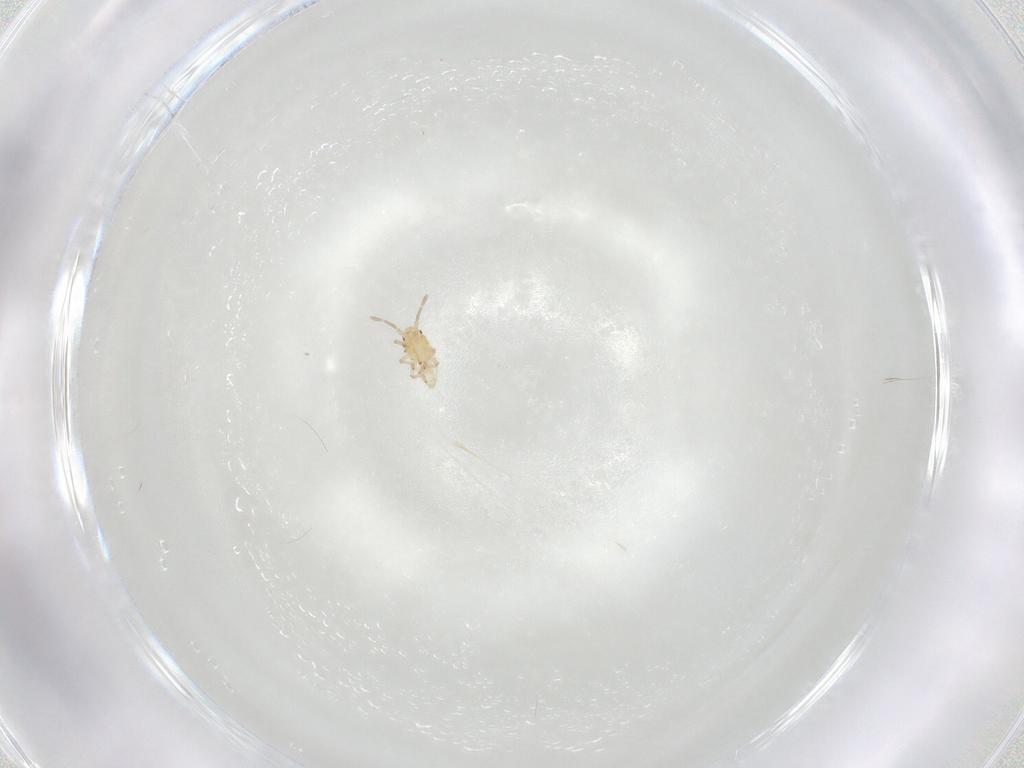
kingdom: Animalia
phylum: Arthropoda
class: Insecta
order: Hemiptera
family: Tingidae
